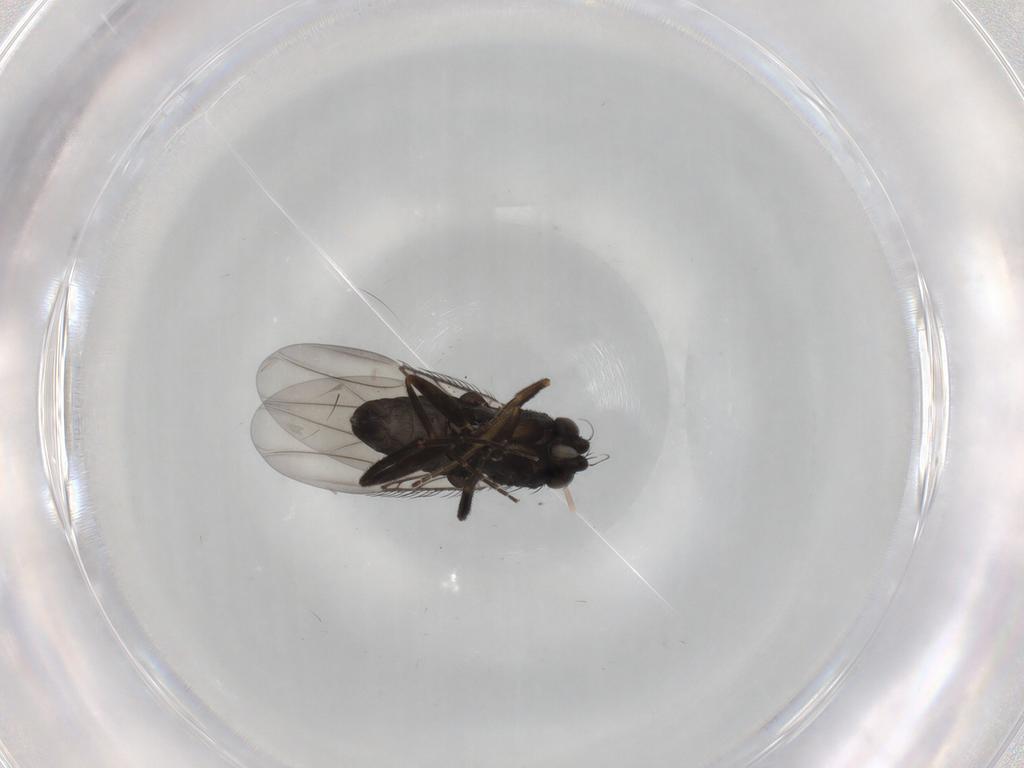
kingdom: Animalia
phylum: Arthropoda
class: Insecta
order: Diptera
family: Phoridae
